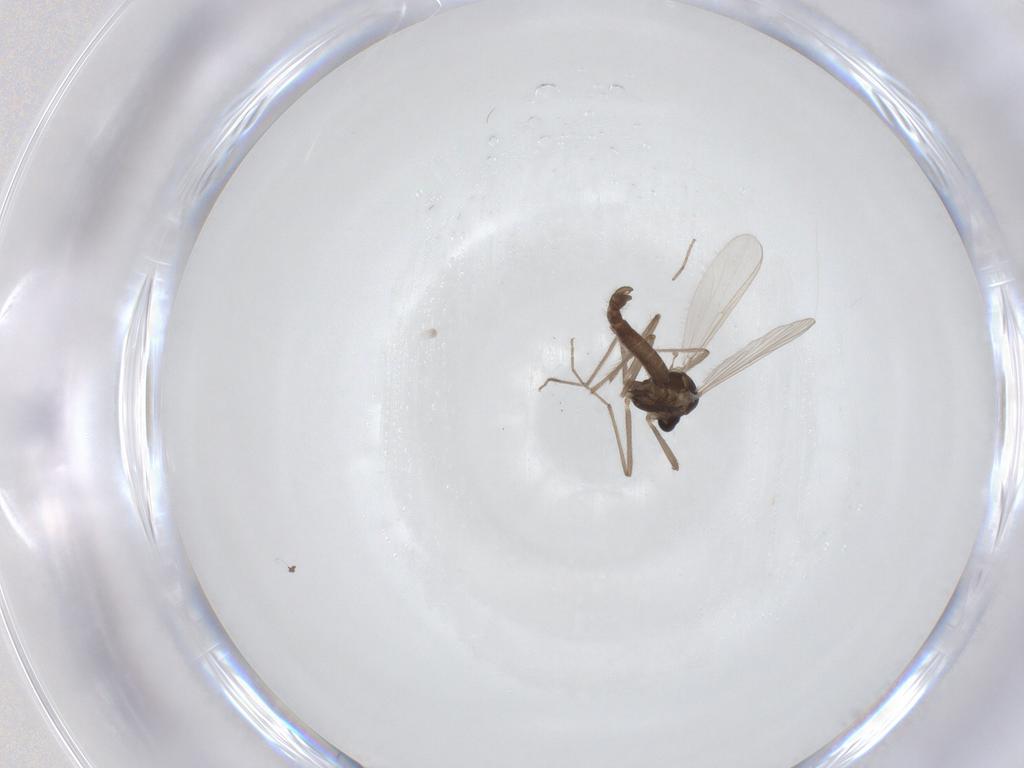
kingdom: Animalia
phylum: Arthropoda
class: Insecta
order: Diptera
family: Chironomidae
